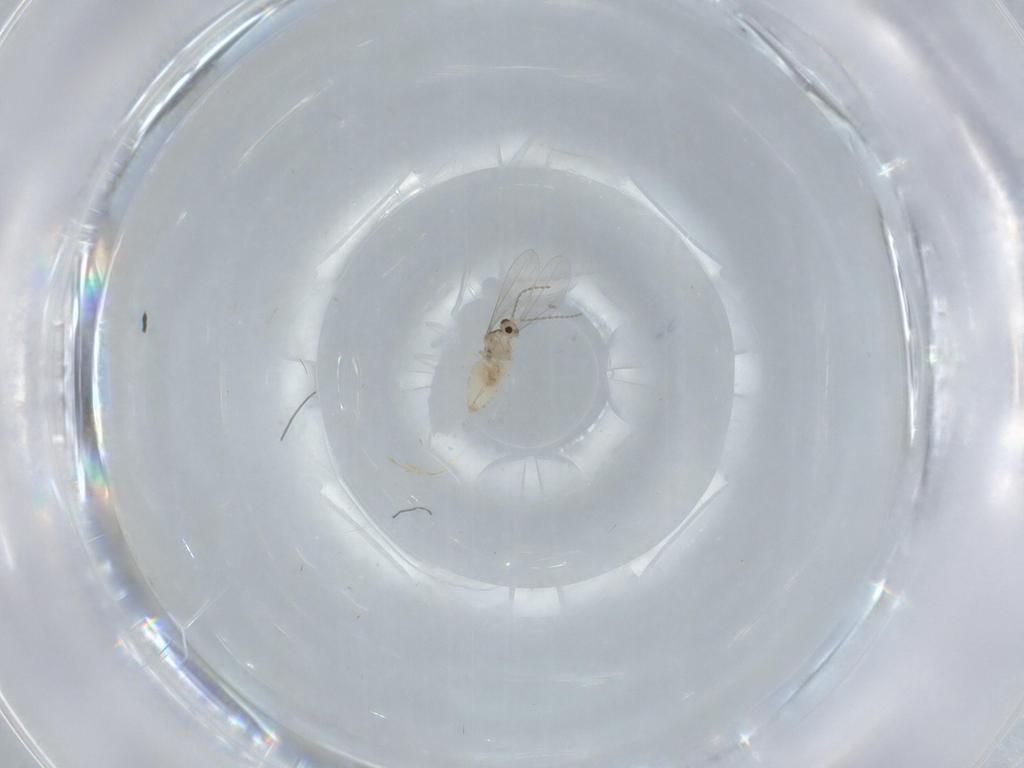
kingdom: Animalia
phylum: Arthropoda
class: Insecta
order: Diptera
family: Cecidomyiidae
